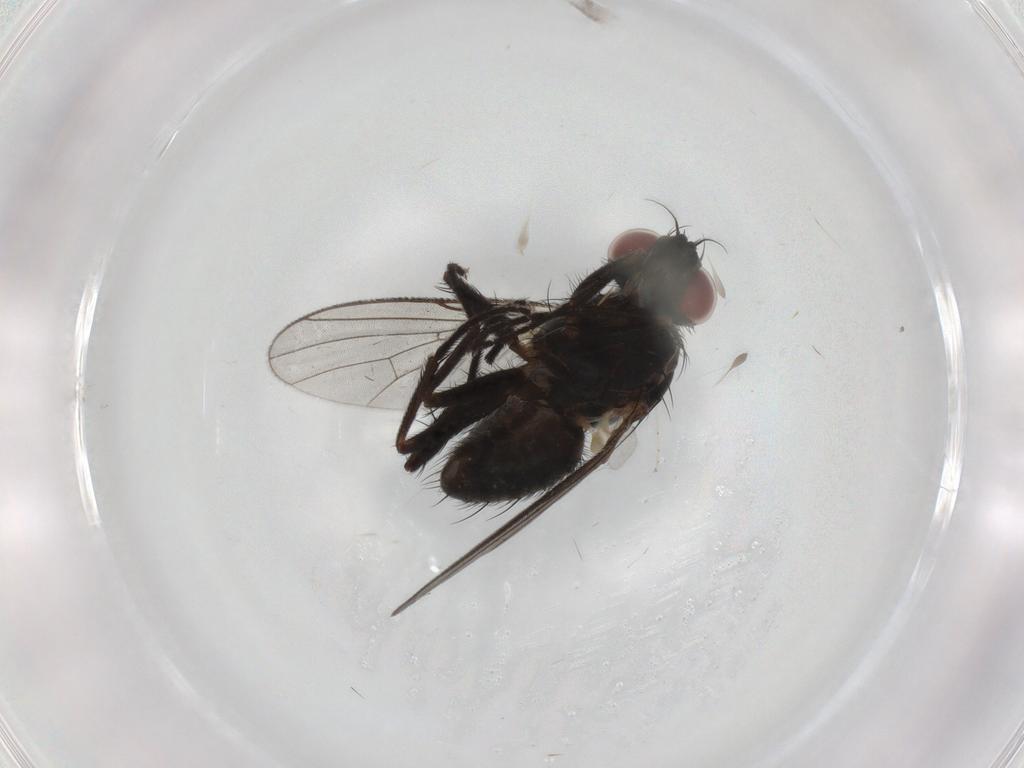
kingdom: Animalia
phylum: Arthropoda
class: Insecta
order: Diptera
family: Muscidae
